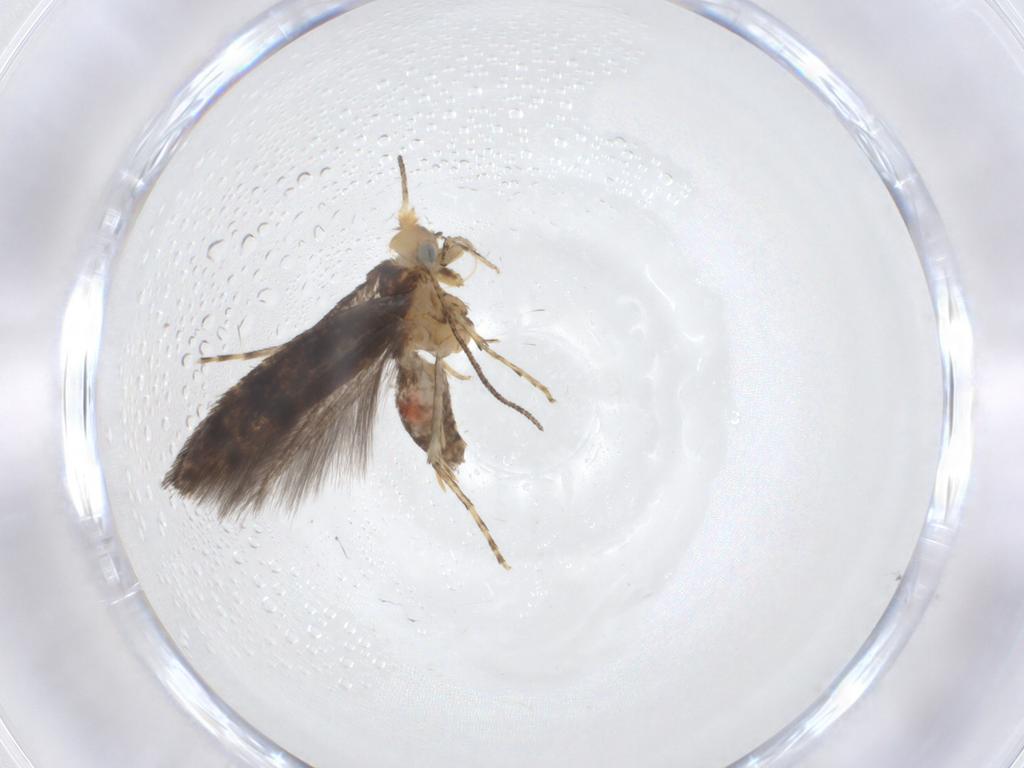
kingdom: Animalia
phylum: Arthropoda
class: Insecta
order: Lepidoptera
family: Argyresthiidae
